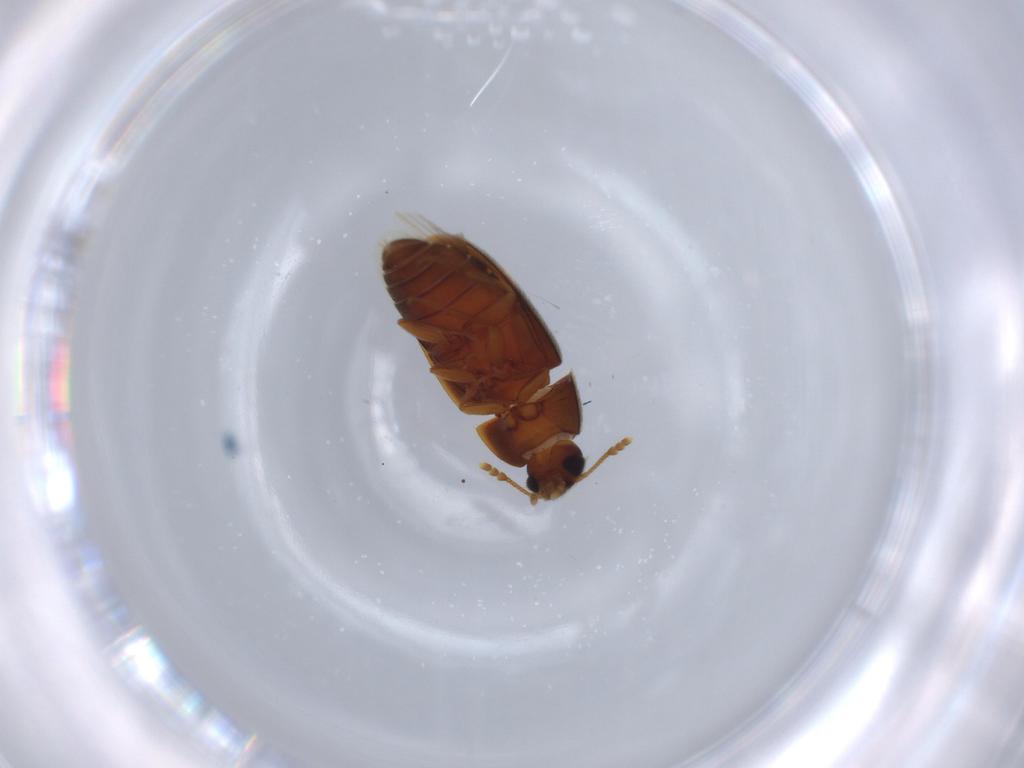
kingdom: Animalia
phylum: Arthropoda
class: Insecta
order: Coleoptera
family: Mycetophagidae
